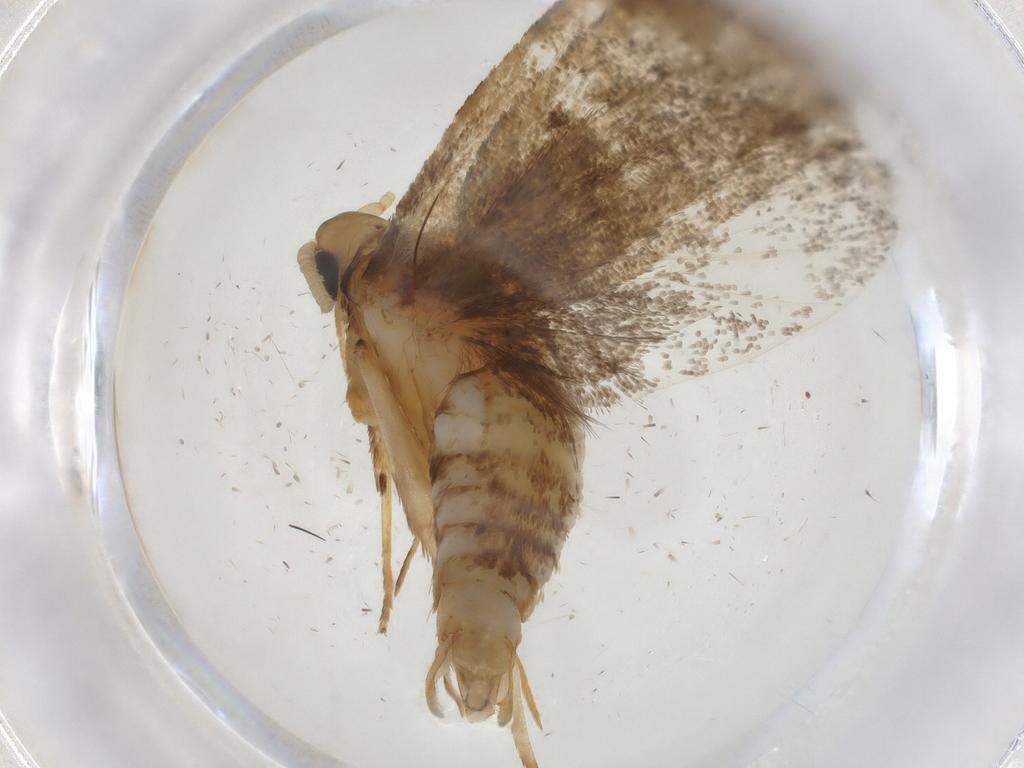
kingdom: Animalia
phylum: Arthropoda
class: Insecta
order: Lepidoptera
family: Lecithoceridae
